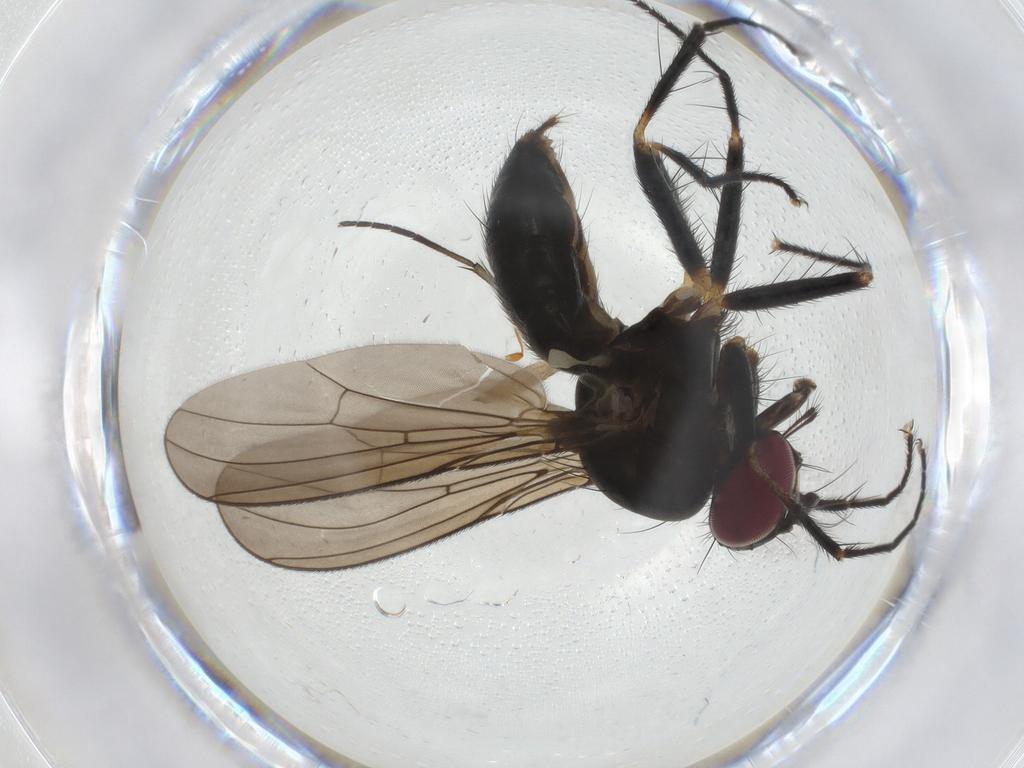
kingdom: Animalia
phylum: Arthropoda
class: Insecta
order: Diptera
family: Anthomyiidae
